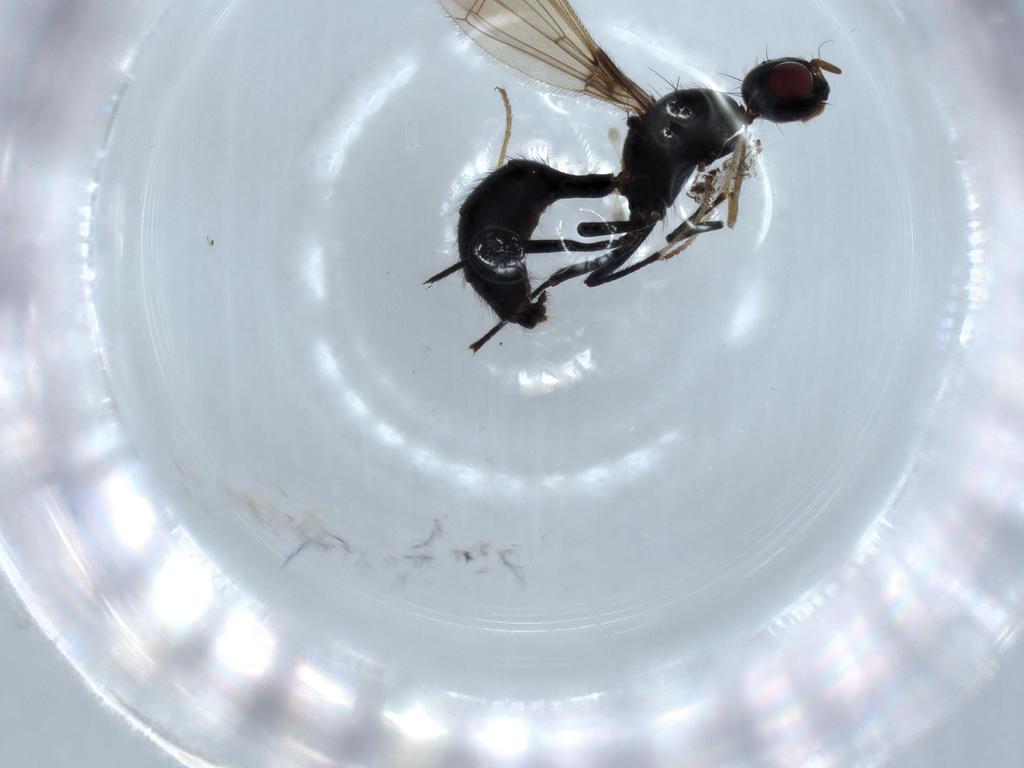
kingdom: Animalia
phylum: Arthropoda
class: Insecta
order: Diptera
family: Richardiidae
